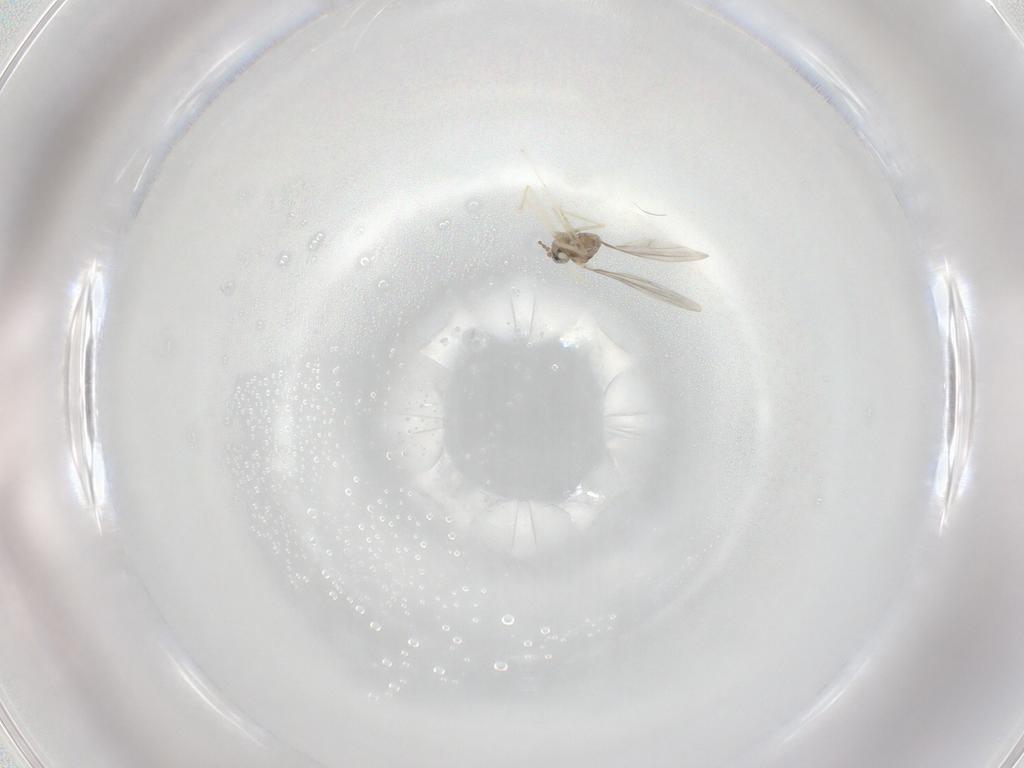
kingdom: Animalia
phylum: Arthropoda
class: Insecta
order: Diptera
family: Cecidomyiidae
